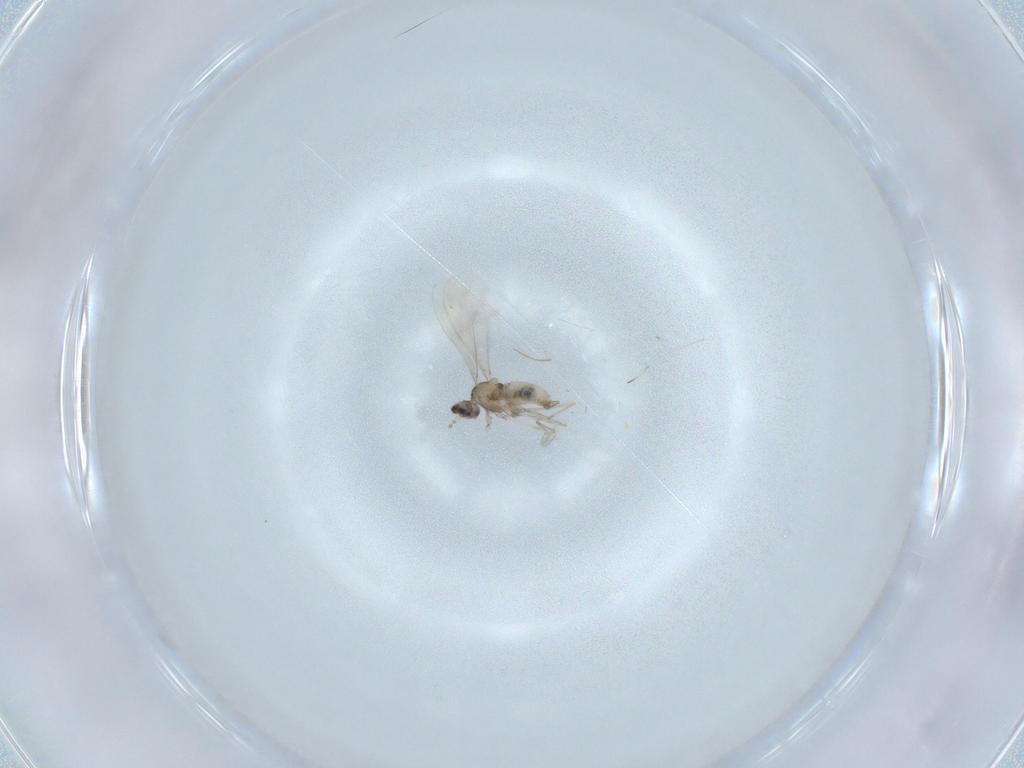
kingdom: Animalia
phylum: Arthropoda
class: Insecta
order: Diptera
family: Cecidomyiidae
